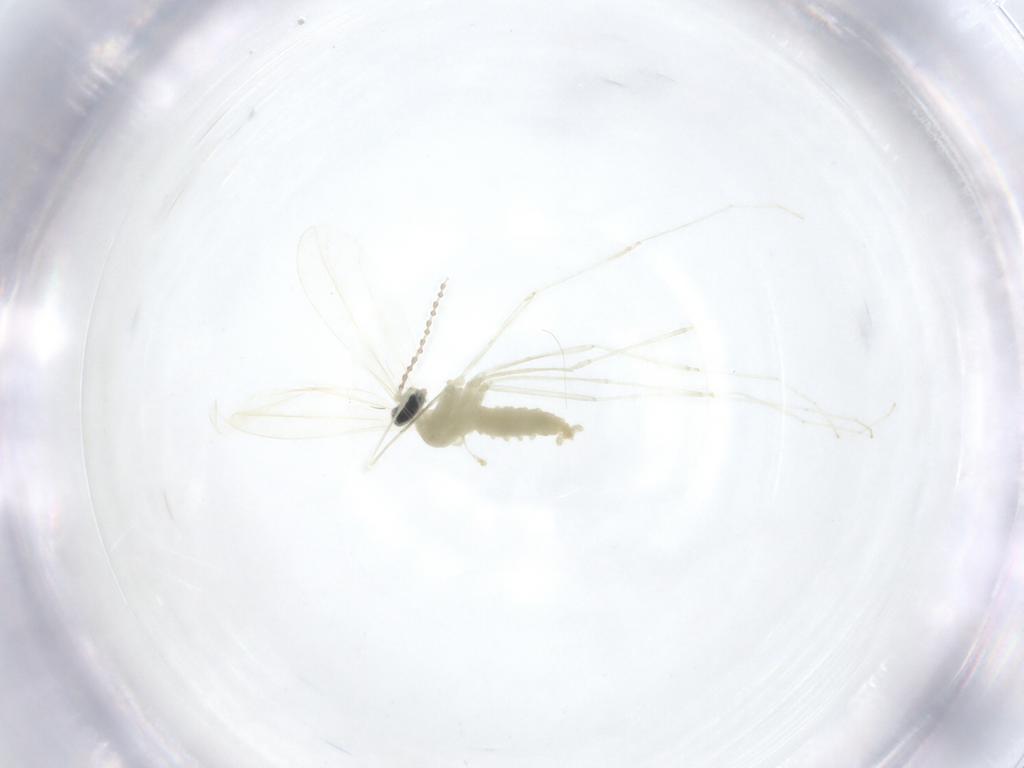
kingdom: Animalia
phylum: Arthropoda
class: Insecta
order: Diptera
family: Cecidomyiidae
